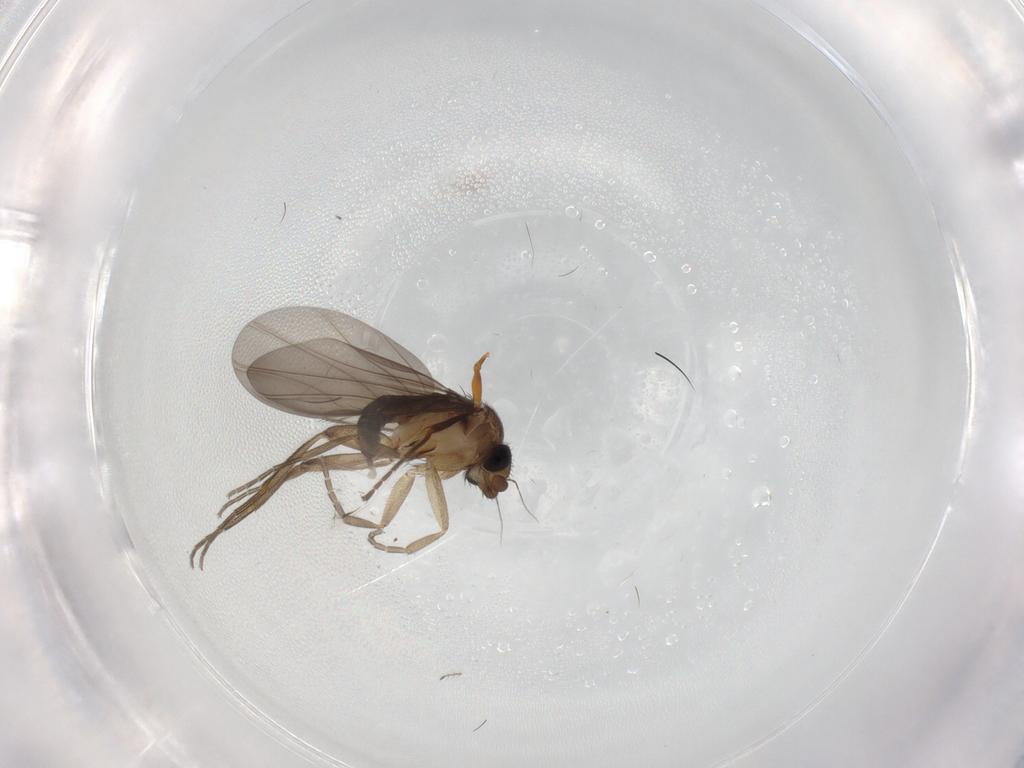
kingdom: Animalia
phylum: Arthropoda
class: Insecta
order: Diptera
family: Phoridae
